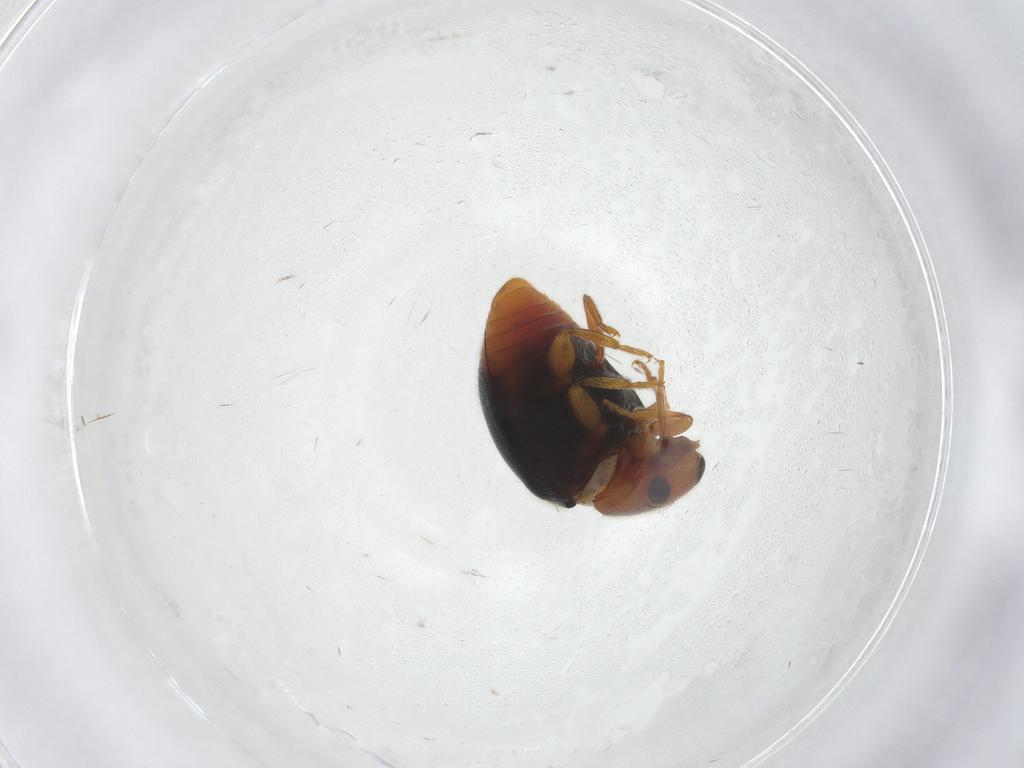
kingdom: Animalia
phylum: Arthropoda
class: Insecta
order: Coleoptera
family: Coccinellidae
